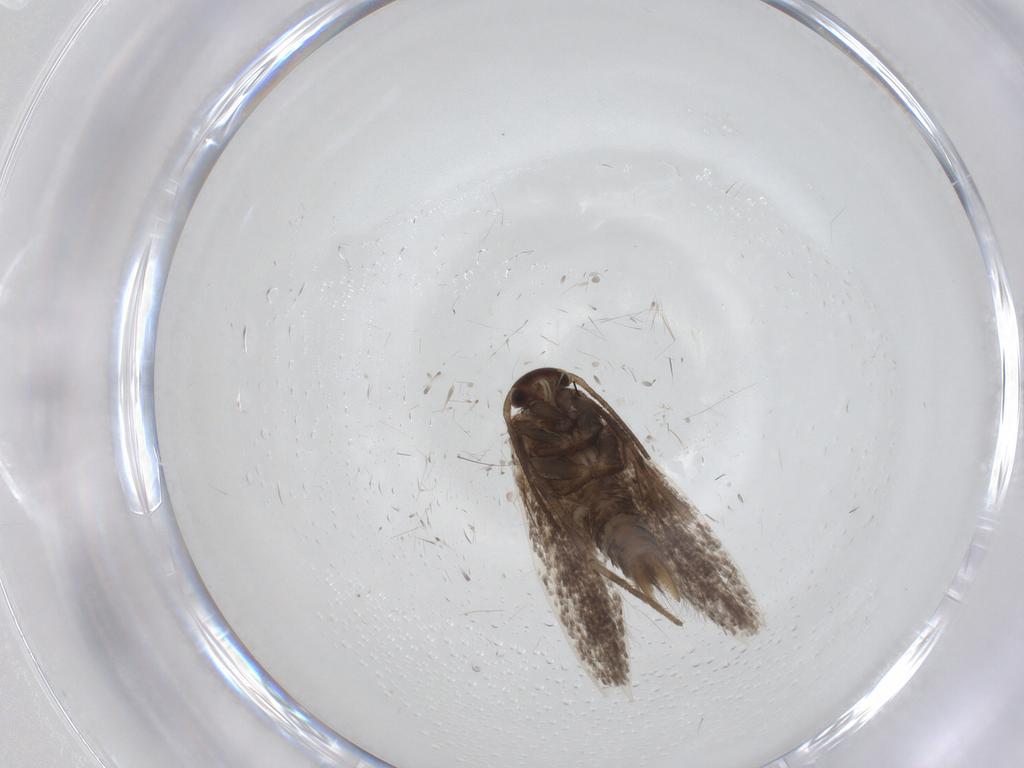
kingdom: Animalia
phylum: Arthropoda
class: Insecta
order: Lepidoptera
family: Elachistidae
